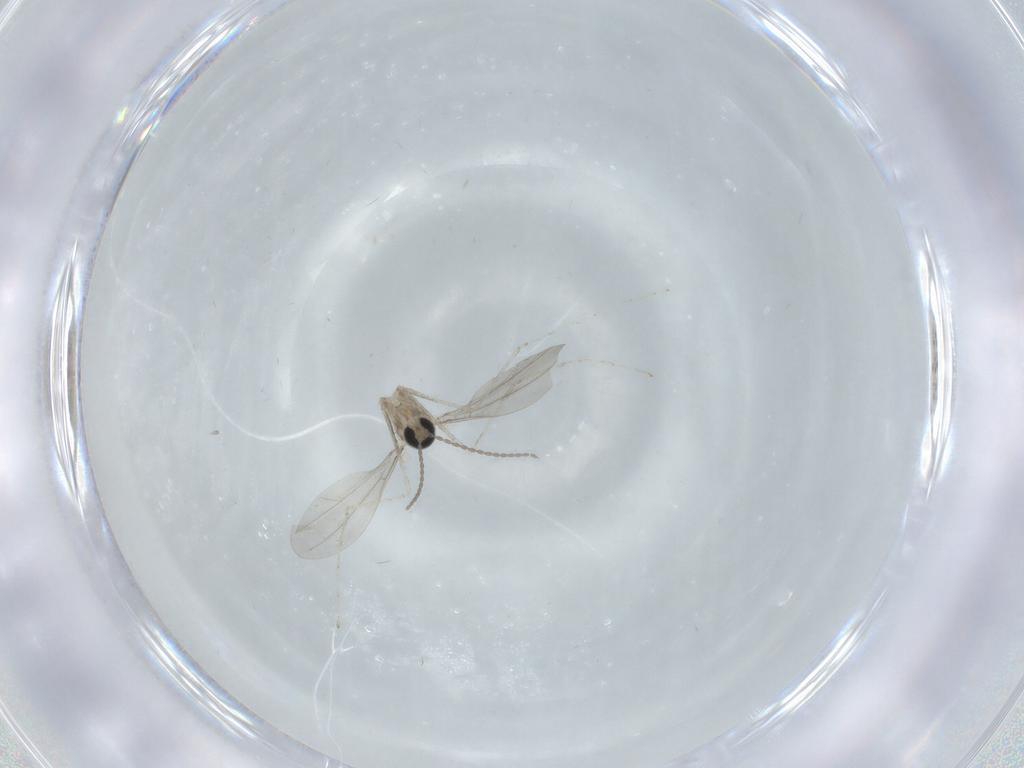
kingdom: Animalia
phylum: Arthropoda
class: Insecta
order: Diptera
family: Cecidomyiidae
